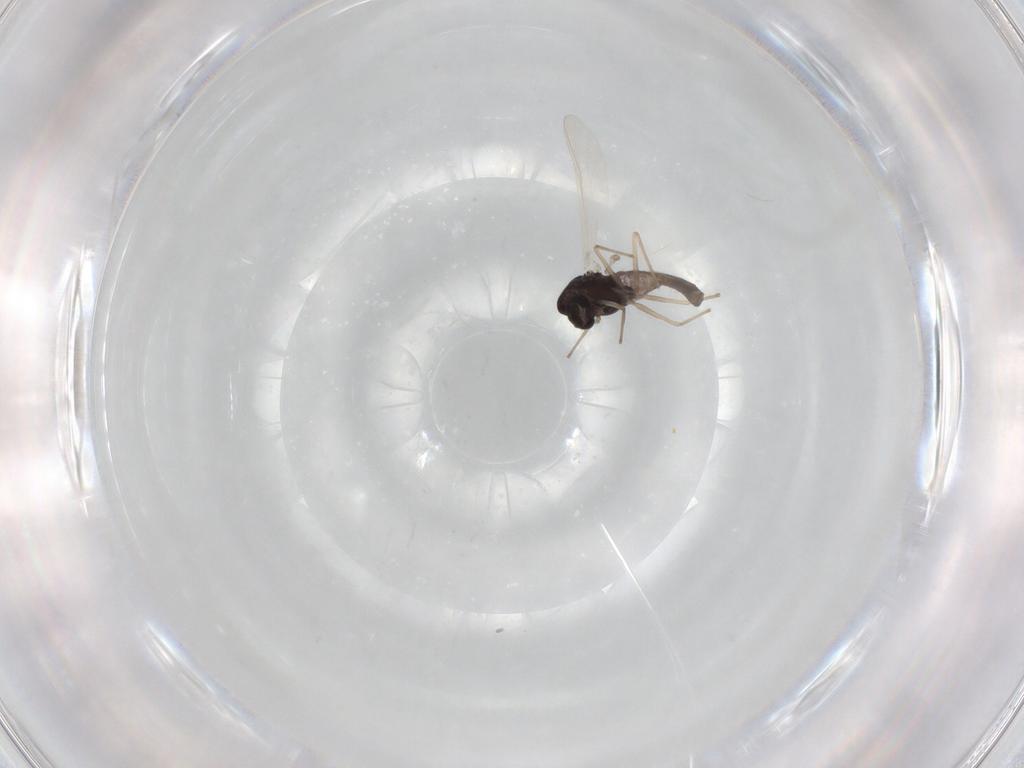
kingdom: Animalia
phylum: Arthropoda
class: Insecta
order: Diptera
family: Chironomidae
